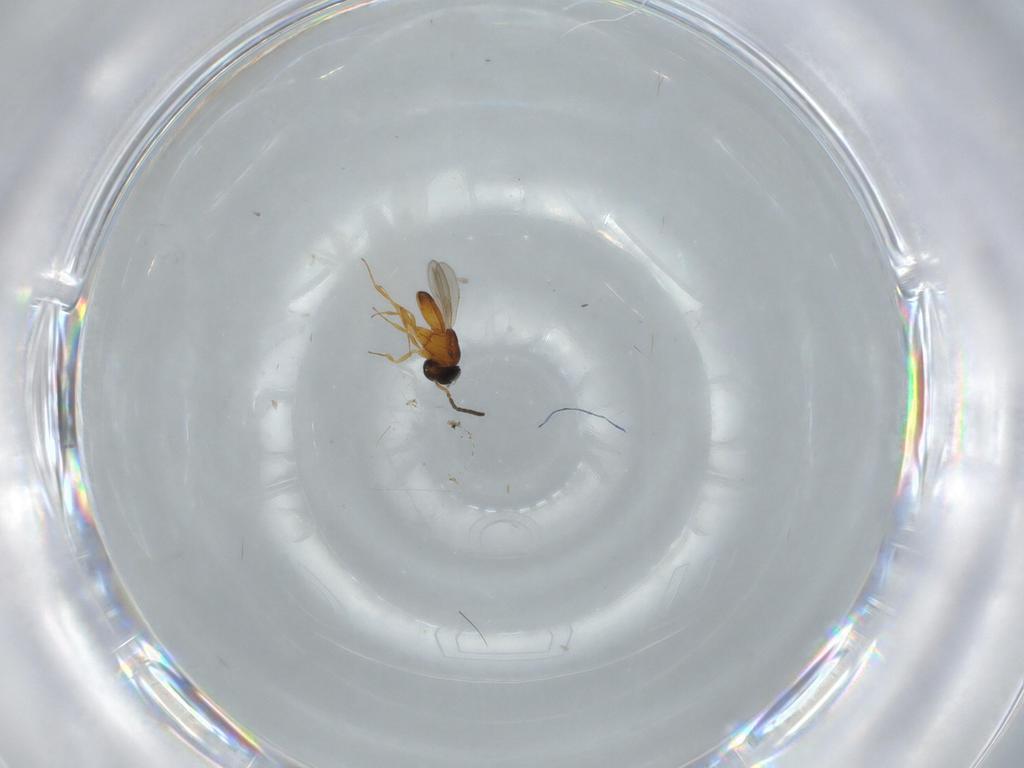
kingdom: Animalia
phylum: Arthropoda
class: Insecta
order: Hymenoptera
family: Scelionidae
